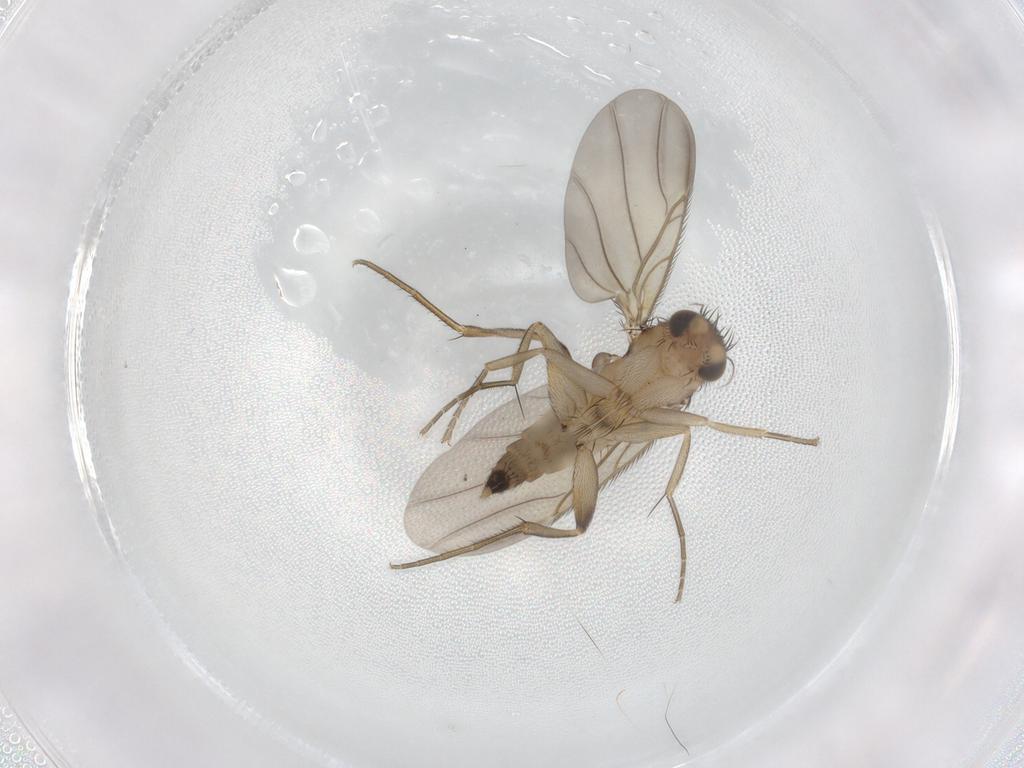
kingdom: Animalia
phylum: Arthropoda
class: Insecta
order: Diptera
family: Phoridae
